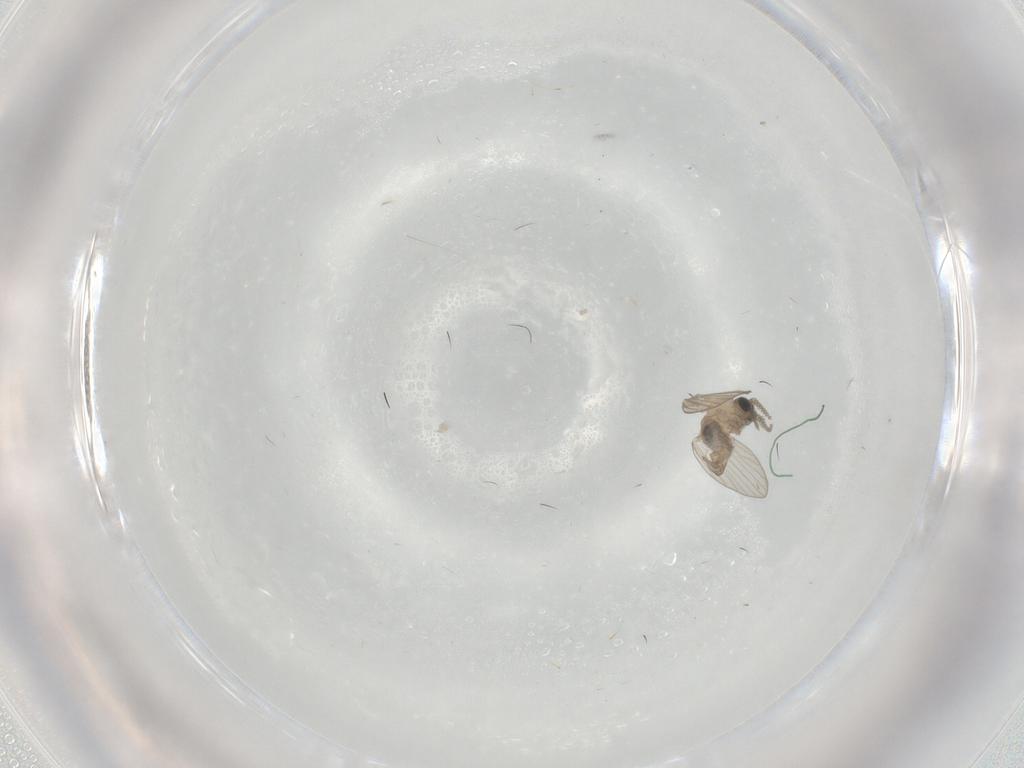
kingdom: Animalia
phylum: Arthropoda
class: Insecta
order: Diptera
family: Psychodidae
